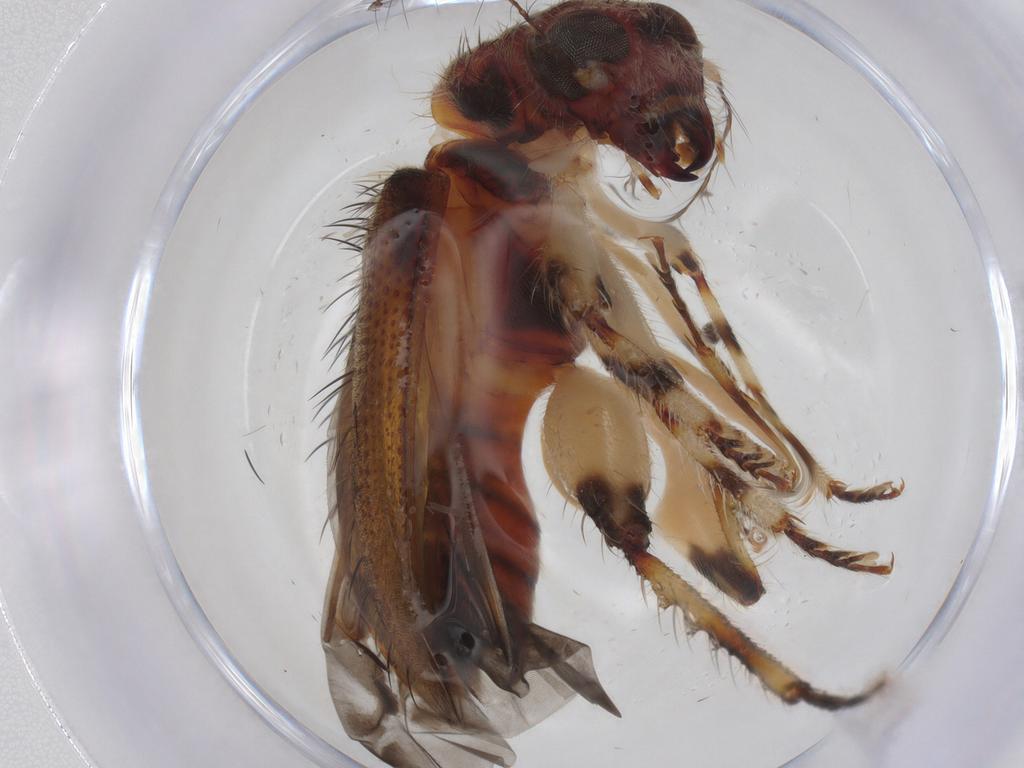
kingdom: Animalia
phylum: Arthropoda
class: Insecta
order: Coleoptera
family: Cleridae
